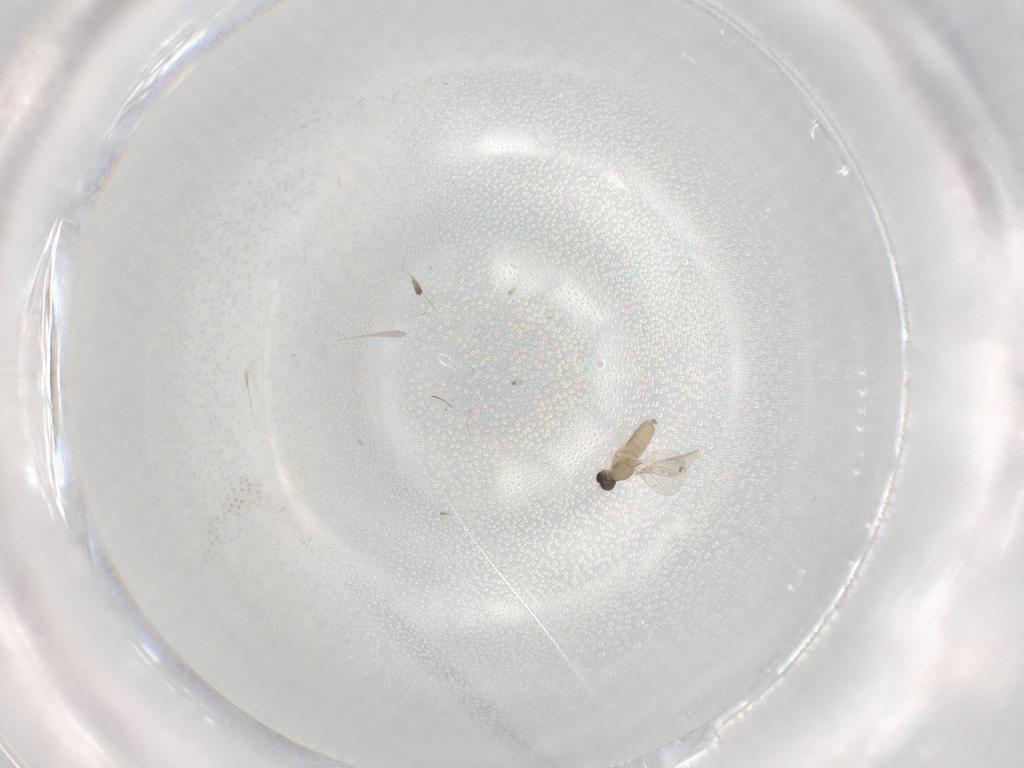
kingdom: Animalia
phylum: Arthropoda
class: Insecta
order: Diptera
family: Cecidomyiidae
